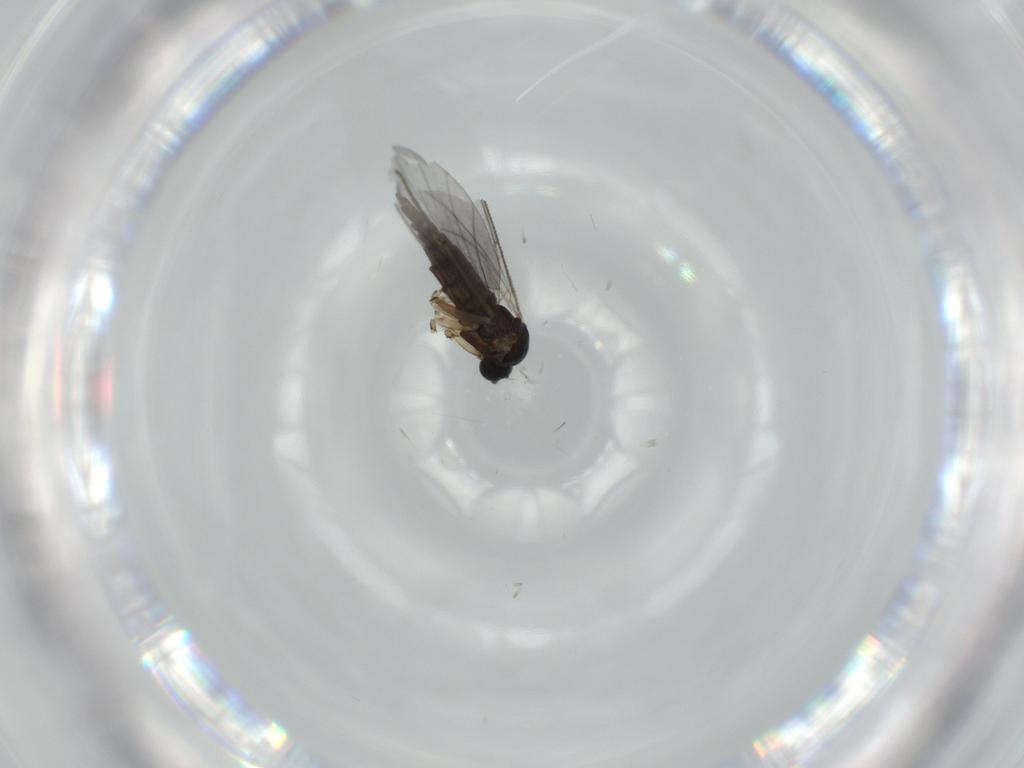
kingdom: Animalia
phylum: Arthropoda
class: Insecta
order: Diptera
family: Sciaridae
